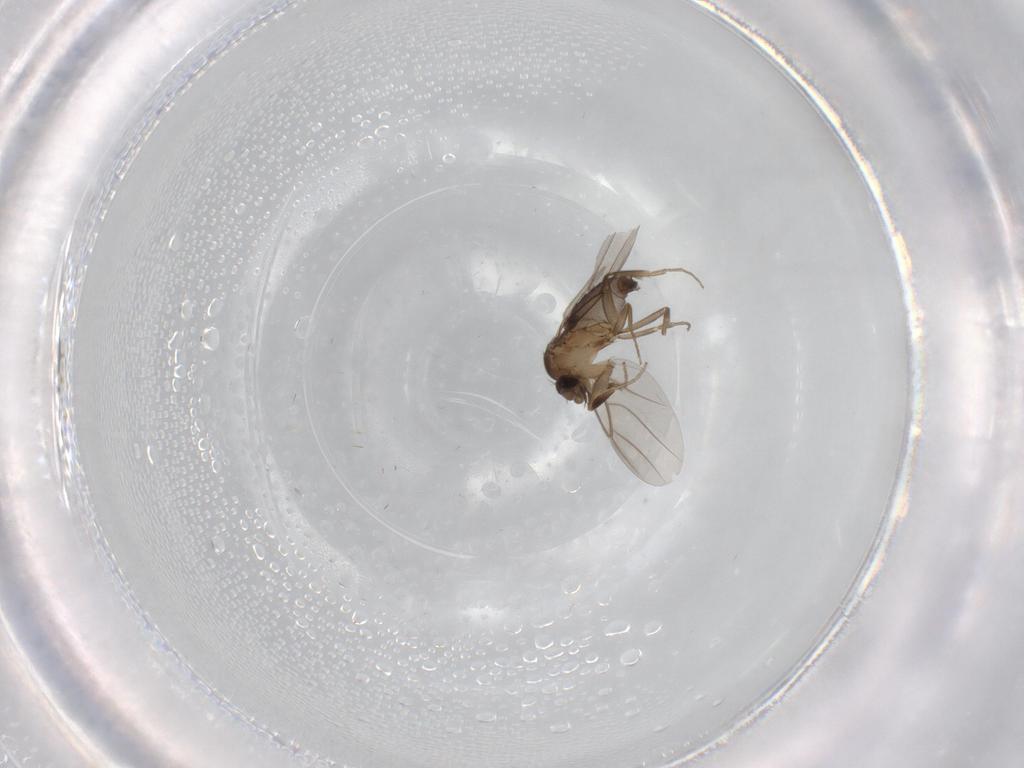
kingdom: Animalia
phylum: Arthropoda
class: Insecta
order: Diptera
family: Phoridae
